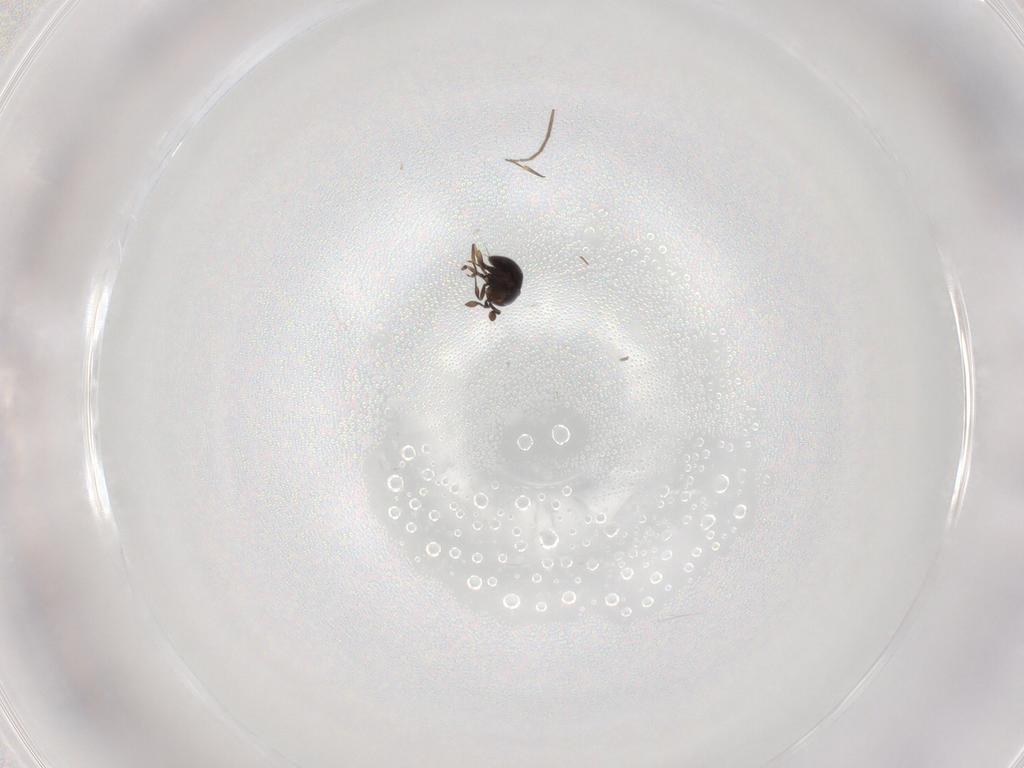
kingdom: Animalia
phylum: Arthropoda
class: Insecta
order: Hymenoptera
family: Scelionidae
